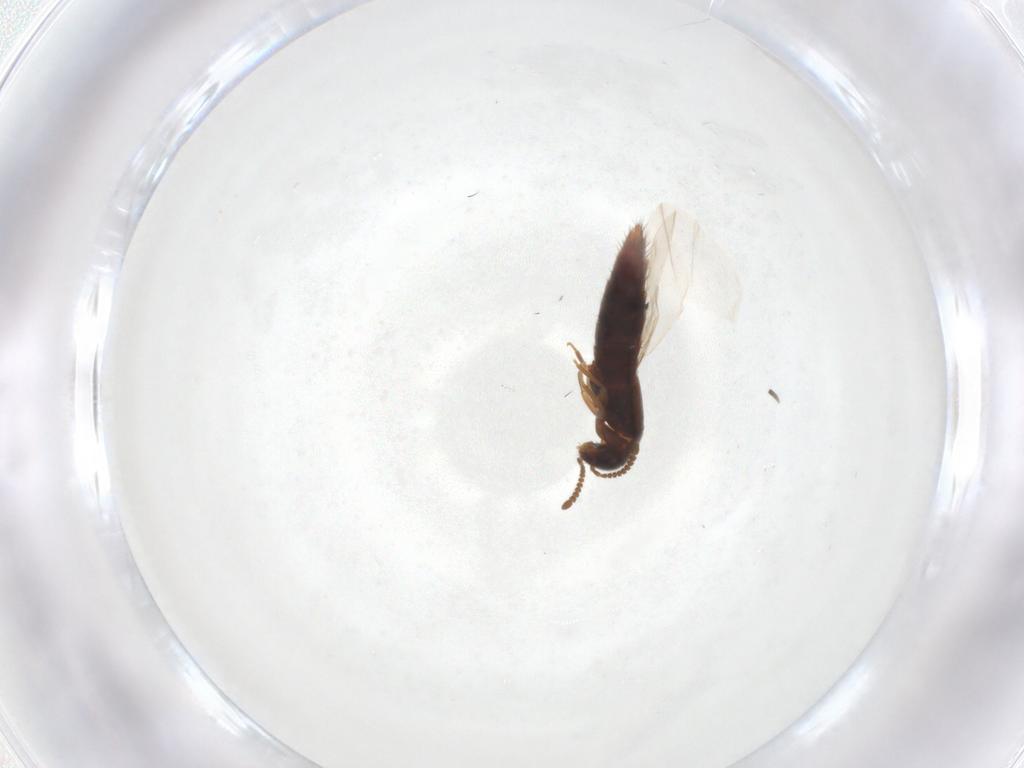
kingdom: Animalia
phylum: Arthropoda
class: Insecta
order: Coleoptera
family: Staphylinidae
